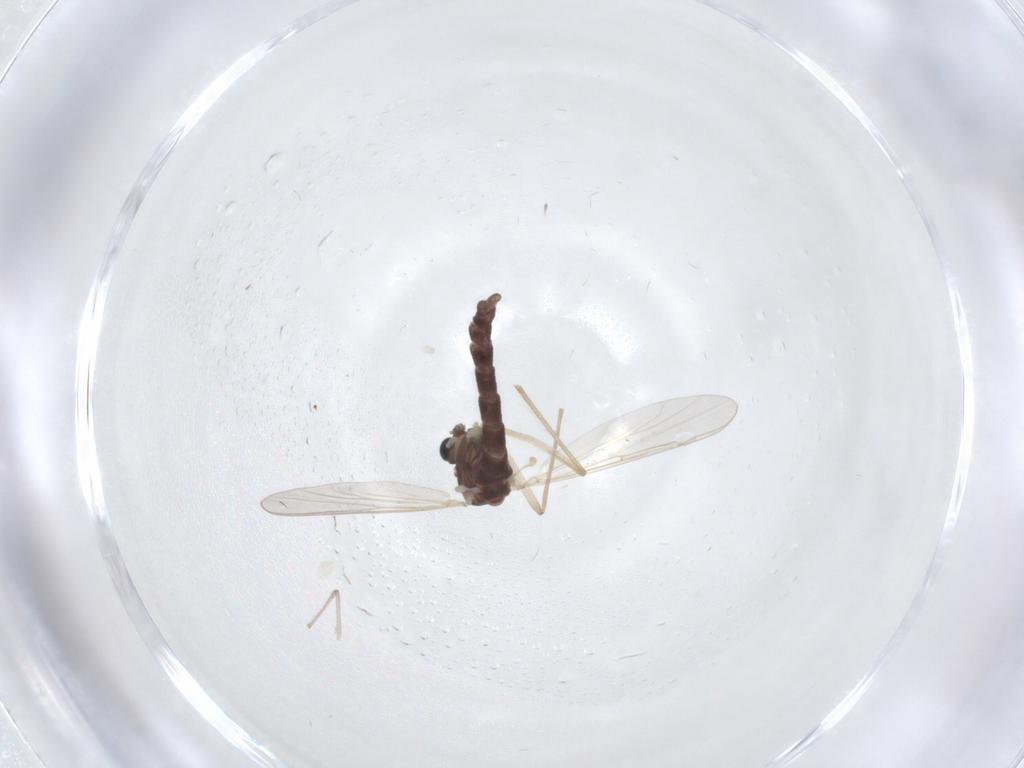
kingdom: Animalia
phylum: Arthropoda
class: Insecta
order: Diptera
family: Chironomidae
